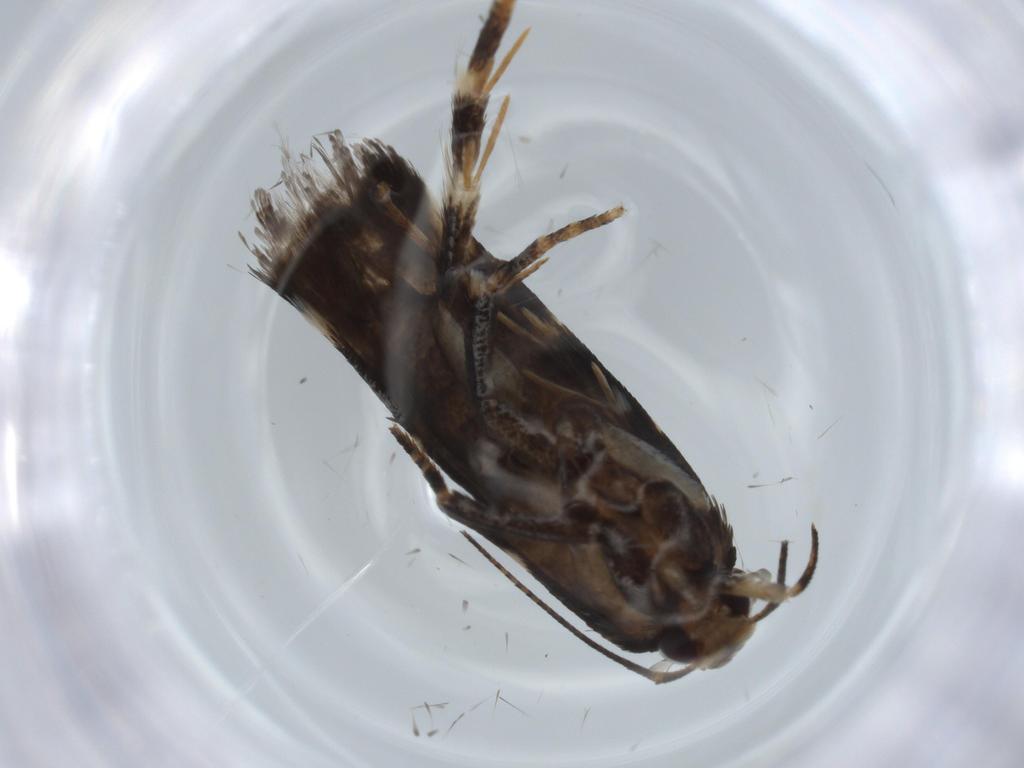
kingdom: Animalia
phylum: Arthropoda
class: Insecta
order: Lepidoptera
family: Gelechiidae
